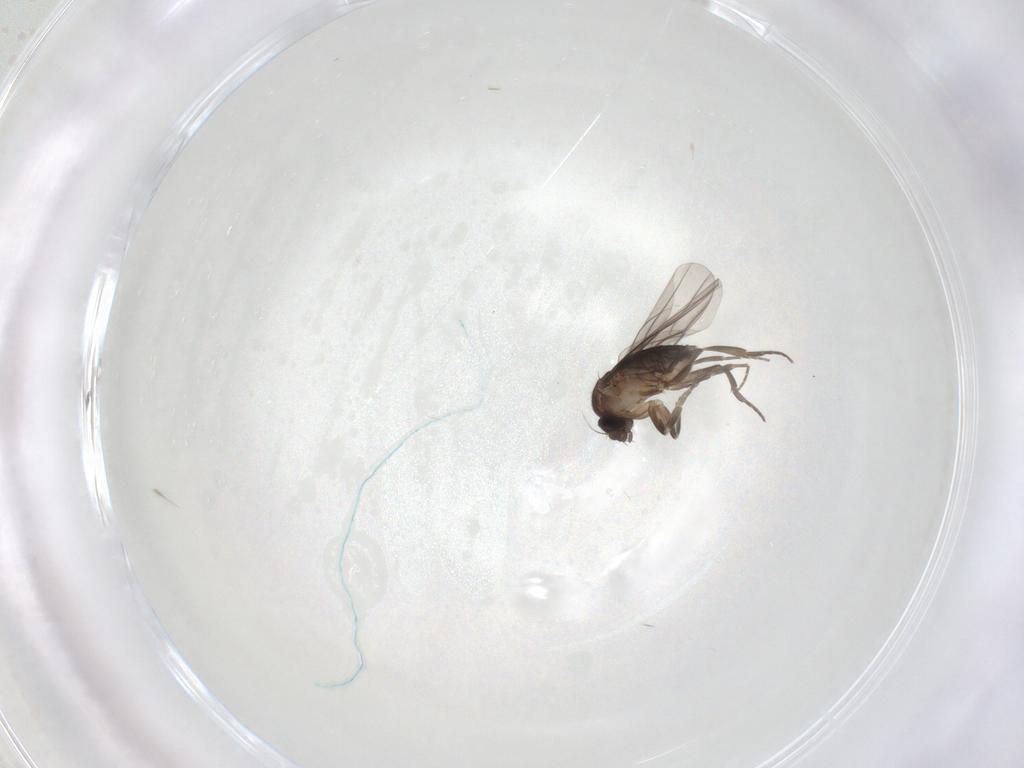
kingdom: Animalia
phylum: Arthropoda
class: Insecta
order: Diptera
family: Phoridae
